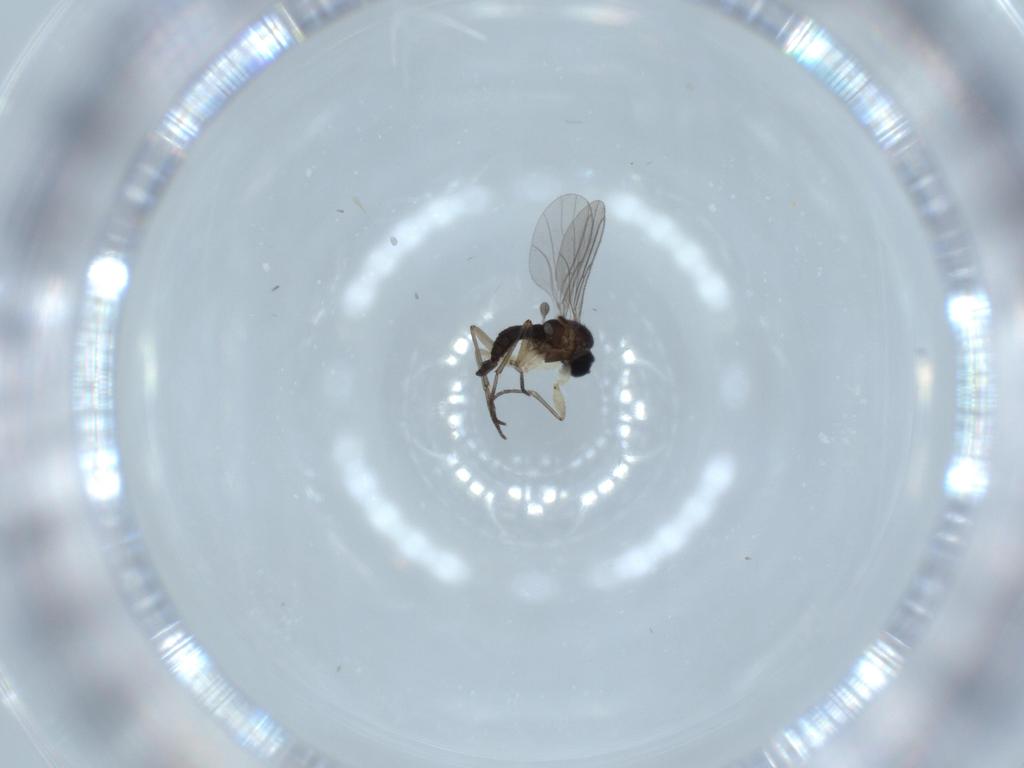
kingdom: Animalia
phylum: Arthropoda
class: Insecta
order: Diptera
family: Sciaridae
